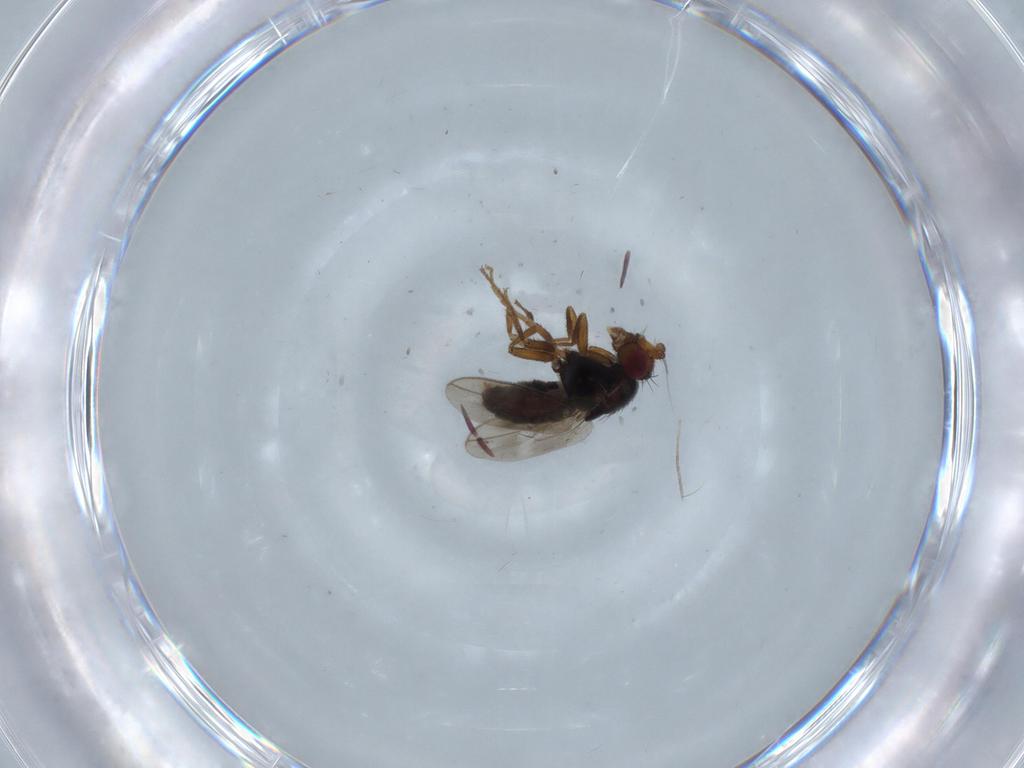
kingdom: Animalia
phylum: Arthropoda
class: Insecta
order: Diptera
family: Sphaeroceridae
